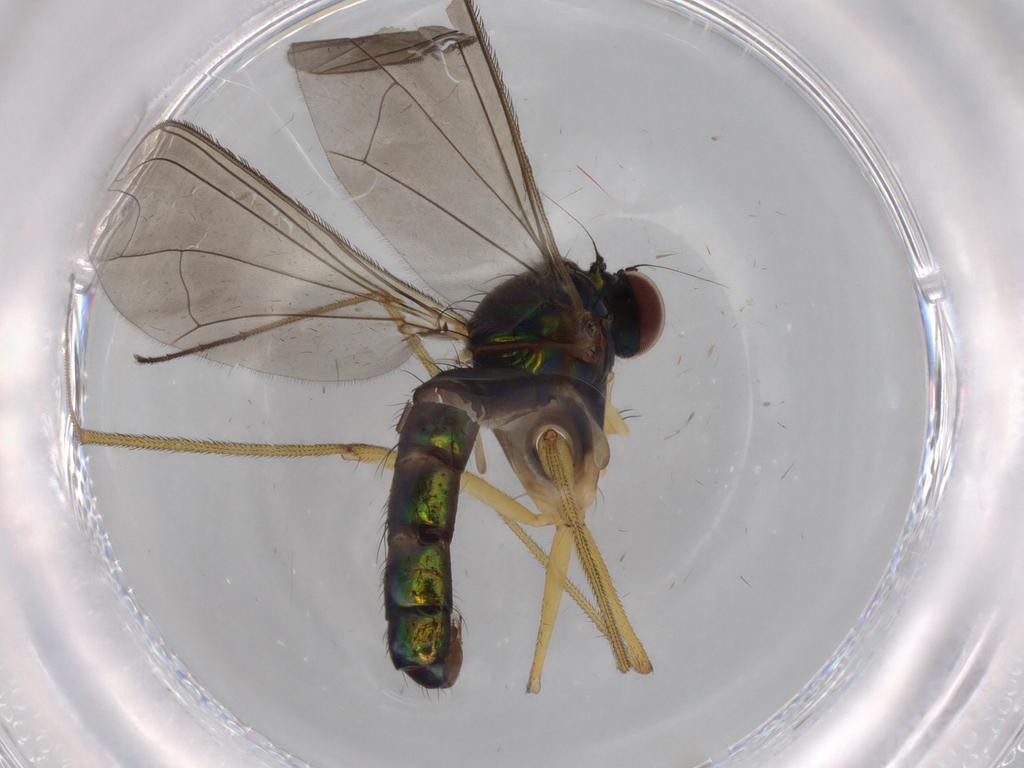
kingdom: Animalia
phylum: Arthropoda
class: Insecta
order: Diptera
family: Dolichopodidae
